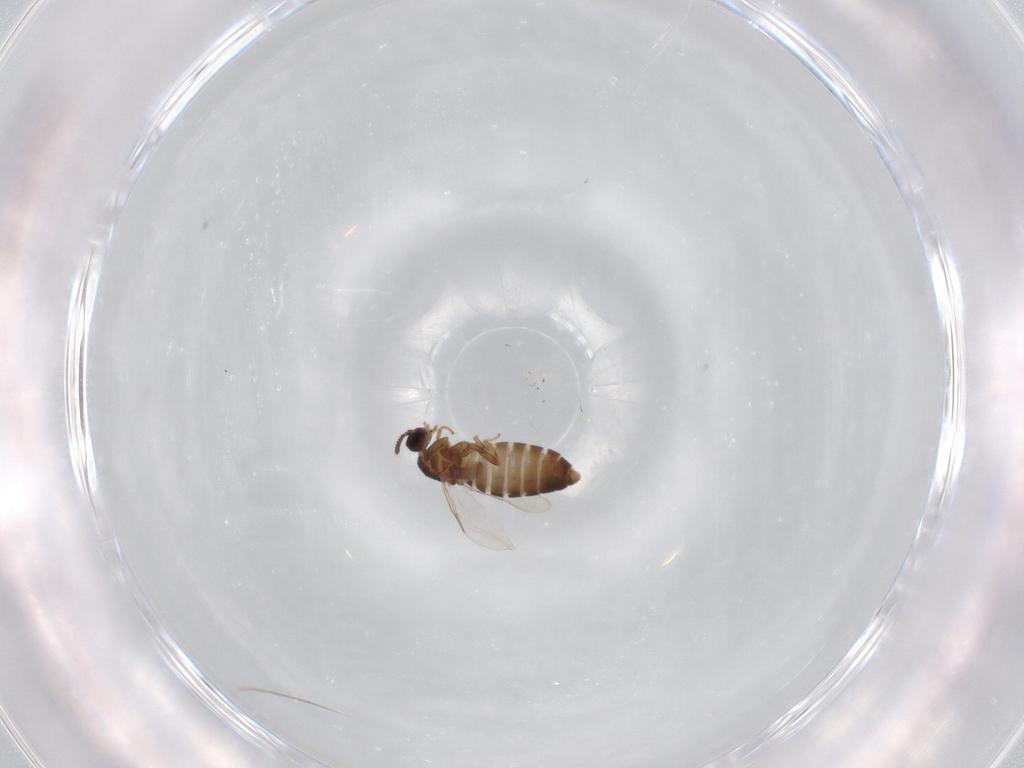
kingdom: Animalia
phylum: Arthropoda
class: Insecta
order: Diptera
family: Scatopsidae
